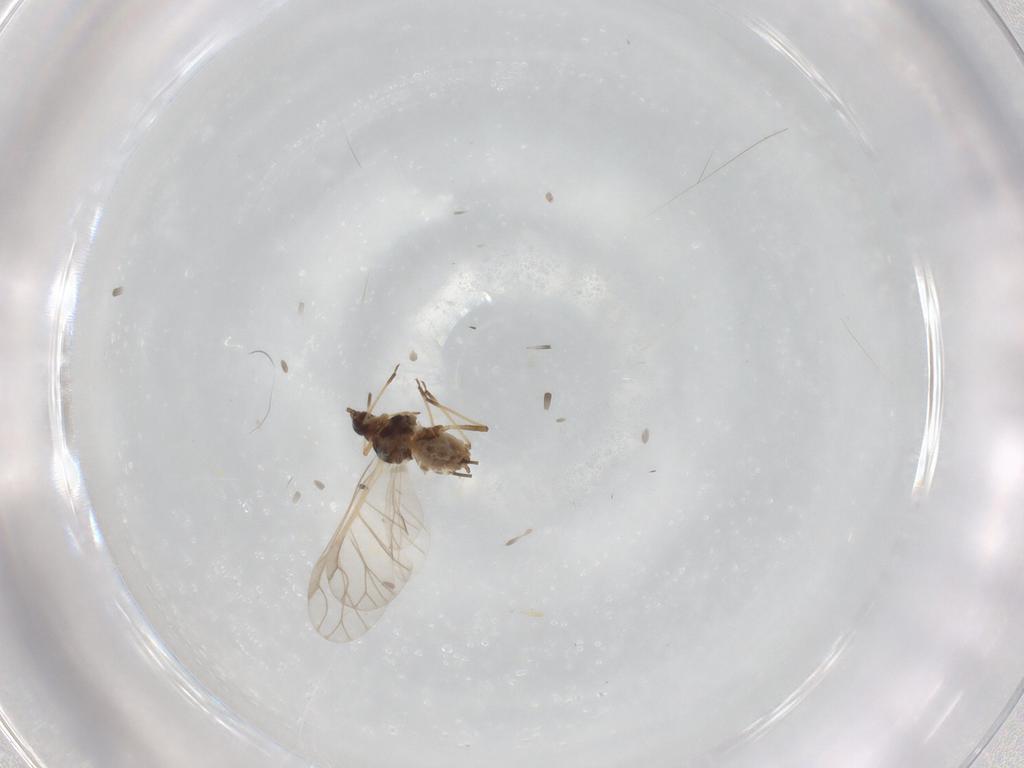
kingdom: Animalia
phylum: Arthropoda
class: Insecta
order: Hemiptera
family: Aphididae
